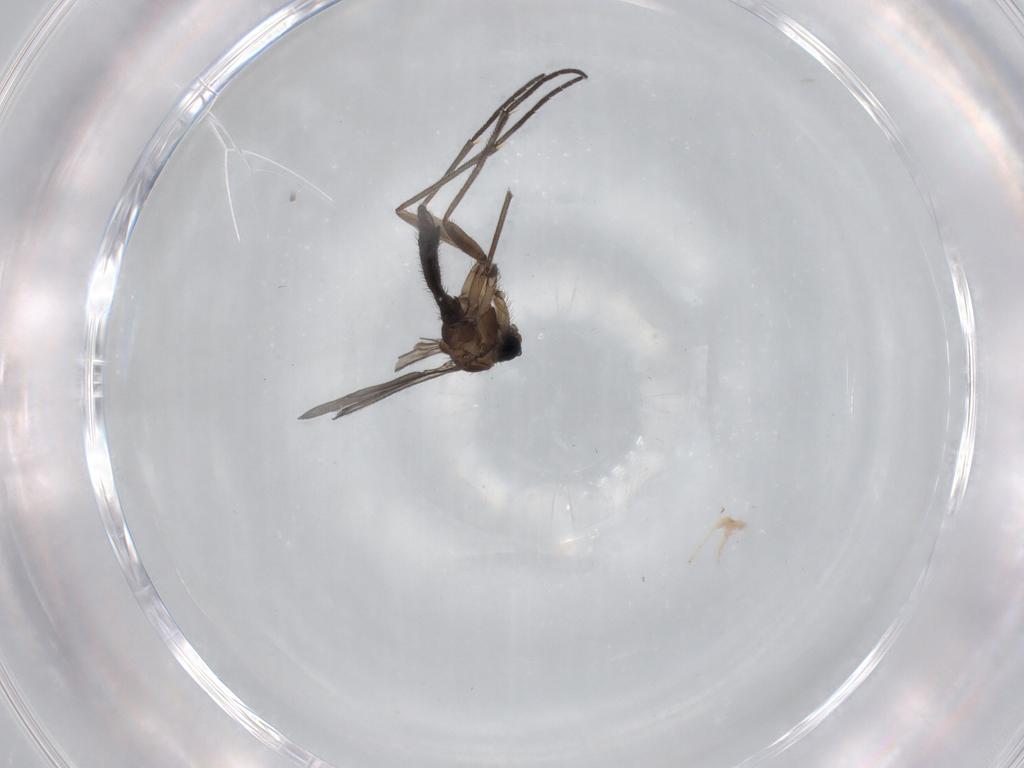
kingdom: Animalia
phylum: Arthropoda
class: Insecta
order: Diptera
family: Sciaridae
